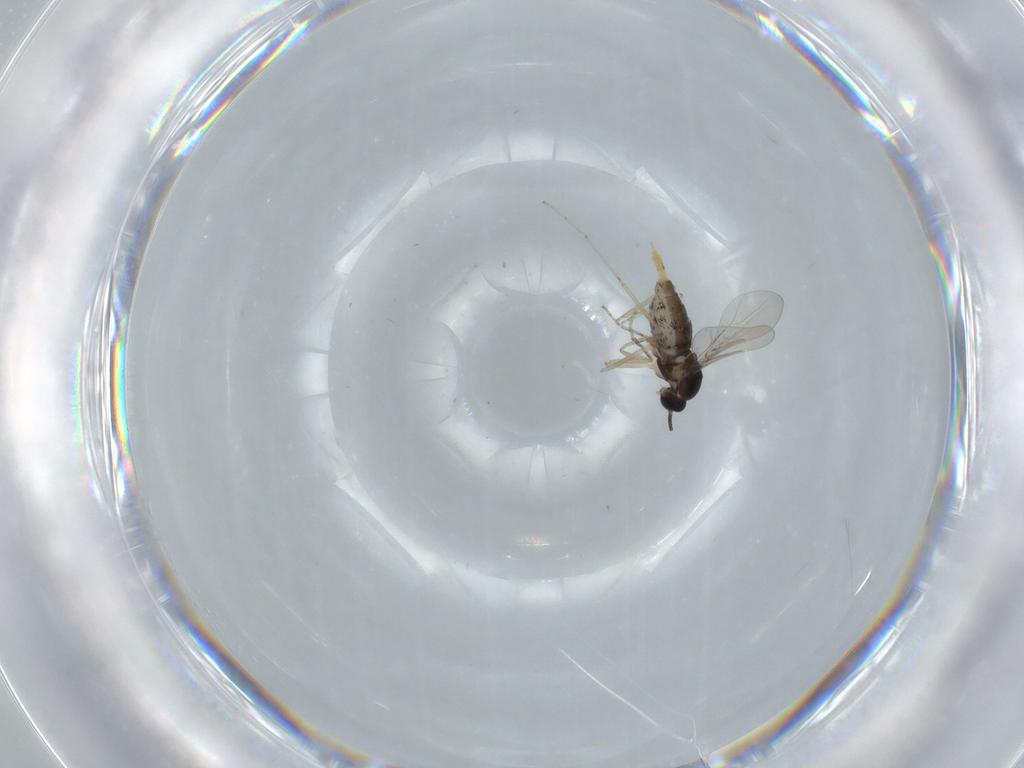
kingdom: Animalia
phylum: Arthropoda
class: Insecta
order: Diptera
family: Cecidomyiidae
